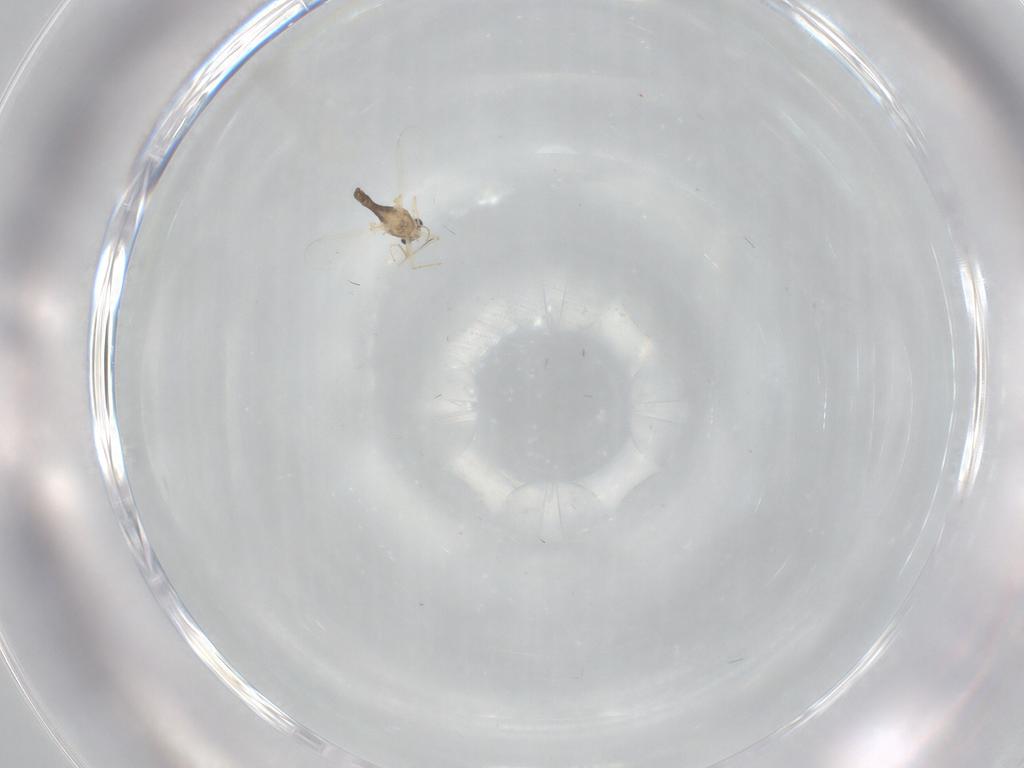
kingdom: Animalia
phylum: Arthropoda
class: Insecta
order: Diptera
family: Chironomidae
